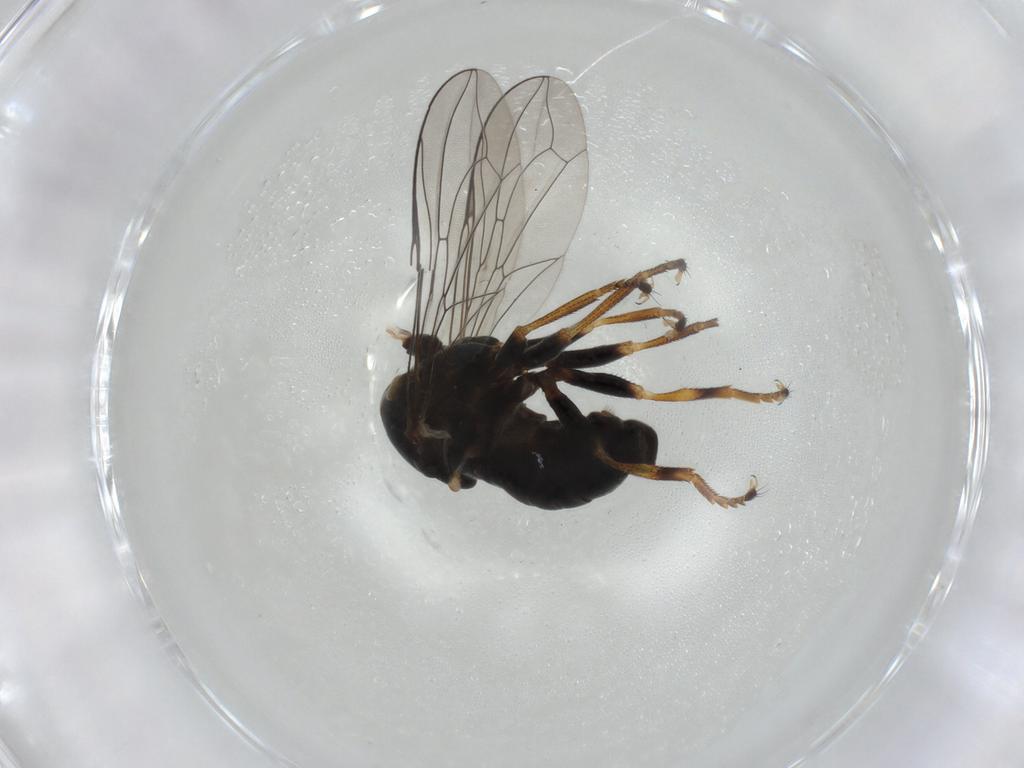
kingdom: Animalia
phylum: Arthropoda
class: Insecta
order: Diptera
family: Pipunculidae
